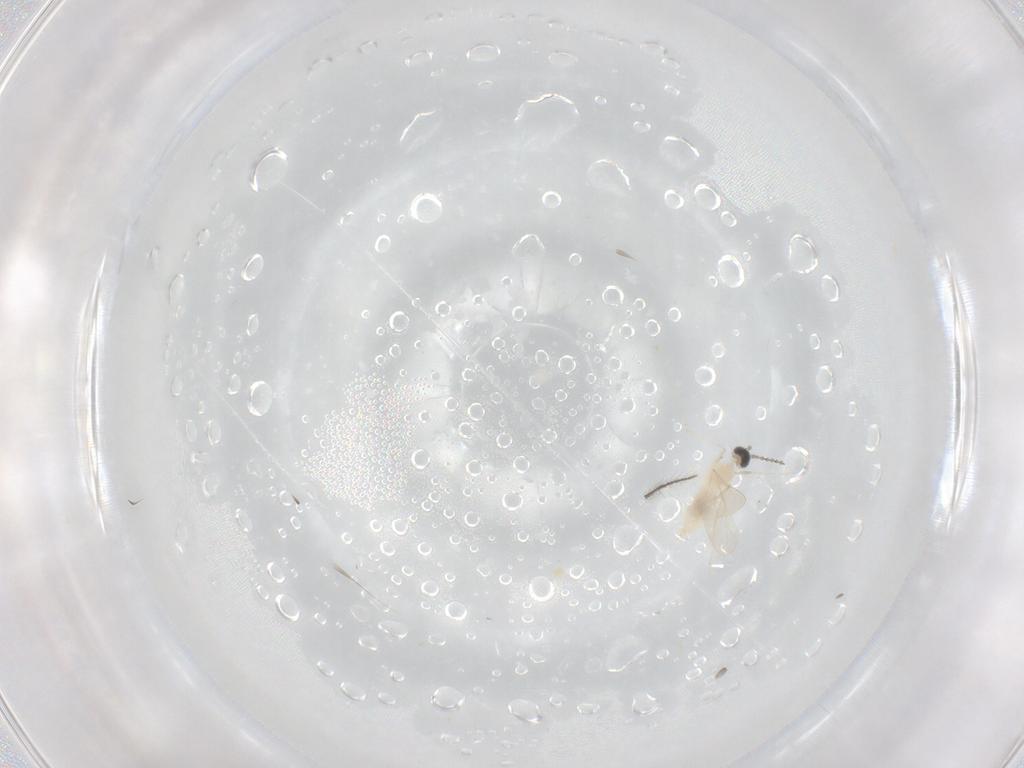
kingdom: Animalia
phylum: Arthropoda
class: Insecta
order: Diptera
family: Cecidomyiidae
